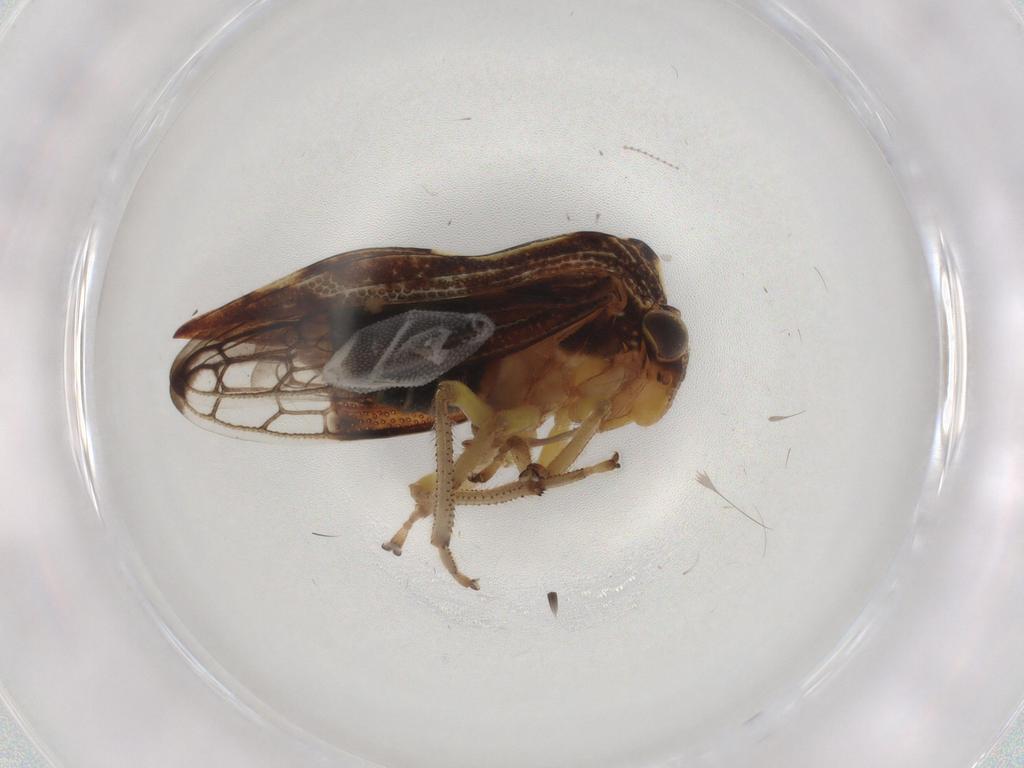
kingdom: Animalia
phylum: Arthropoda
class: Insecta
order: Hemiptera
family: Membracidae
